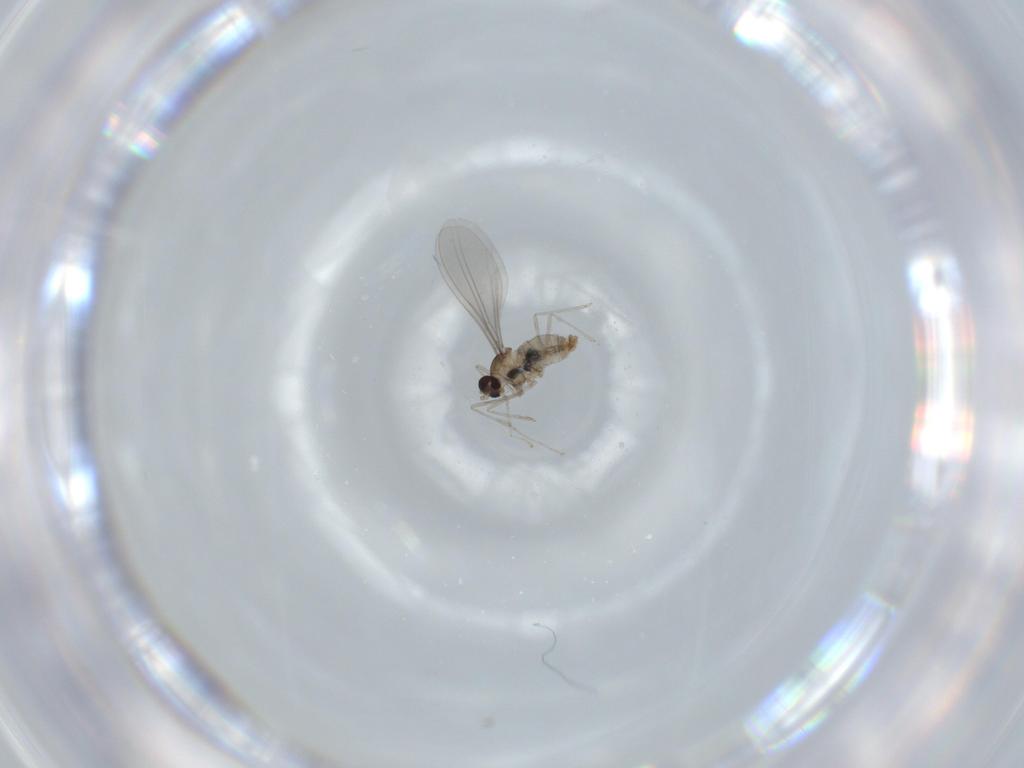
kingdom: Animalia
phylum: Arthropoda
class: Insecta
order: Diptera
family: Cecidomyiidae
